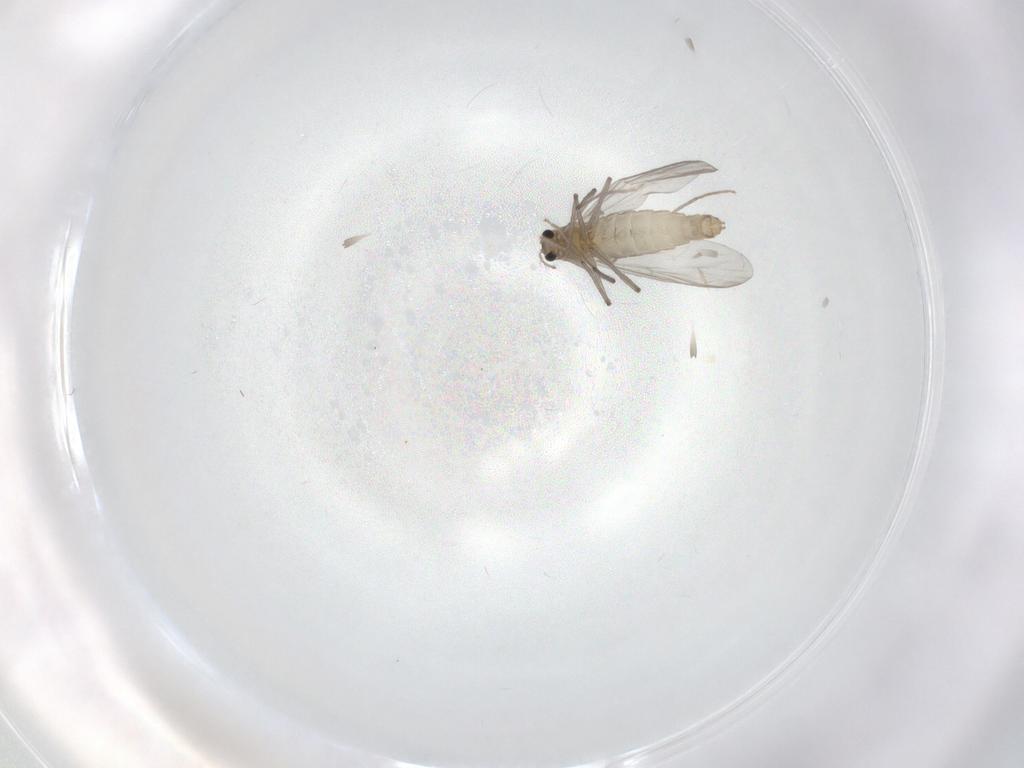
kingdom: Animalia
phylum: Arthropoda
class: Insecta
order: Diptera
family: Chironomidae
